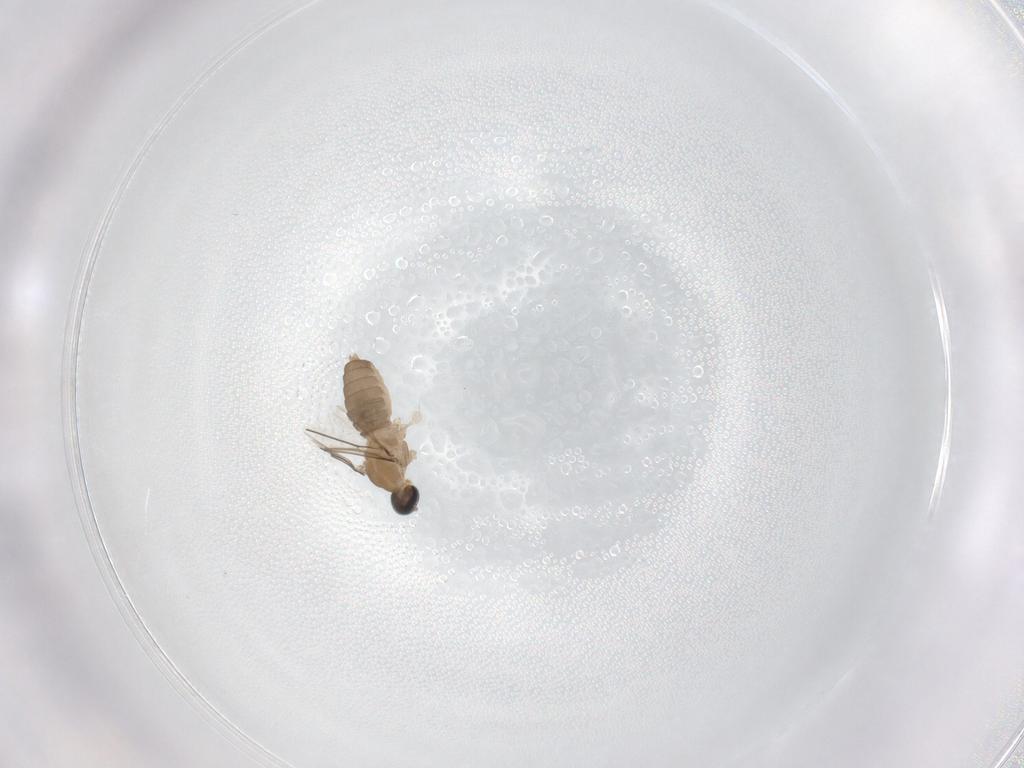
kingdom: Animalia
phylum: Arthropoda
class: Insecta
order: Diptera
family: Cecidomyiidae
